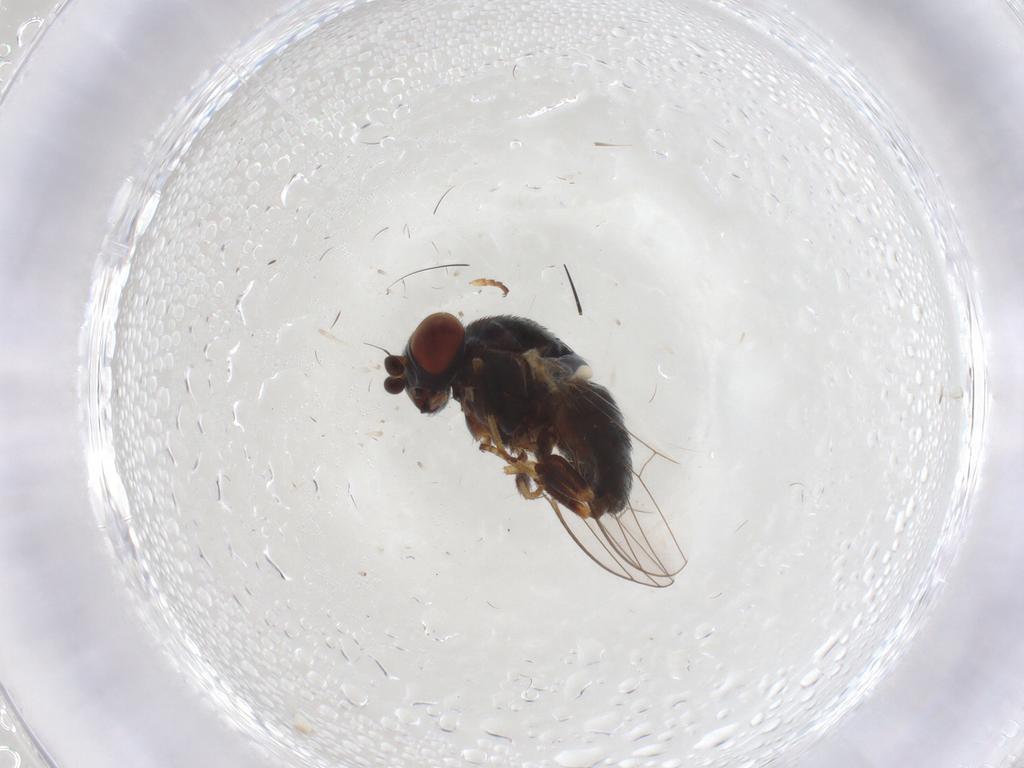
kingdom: Animalia
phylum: Arthropoda
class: Insecta
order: Diptera
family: Chamaemyiidae
